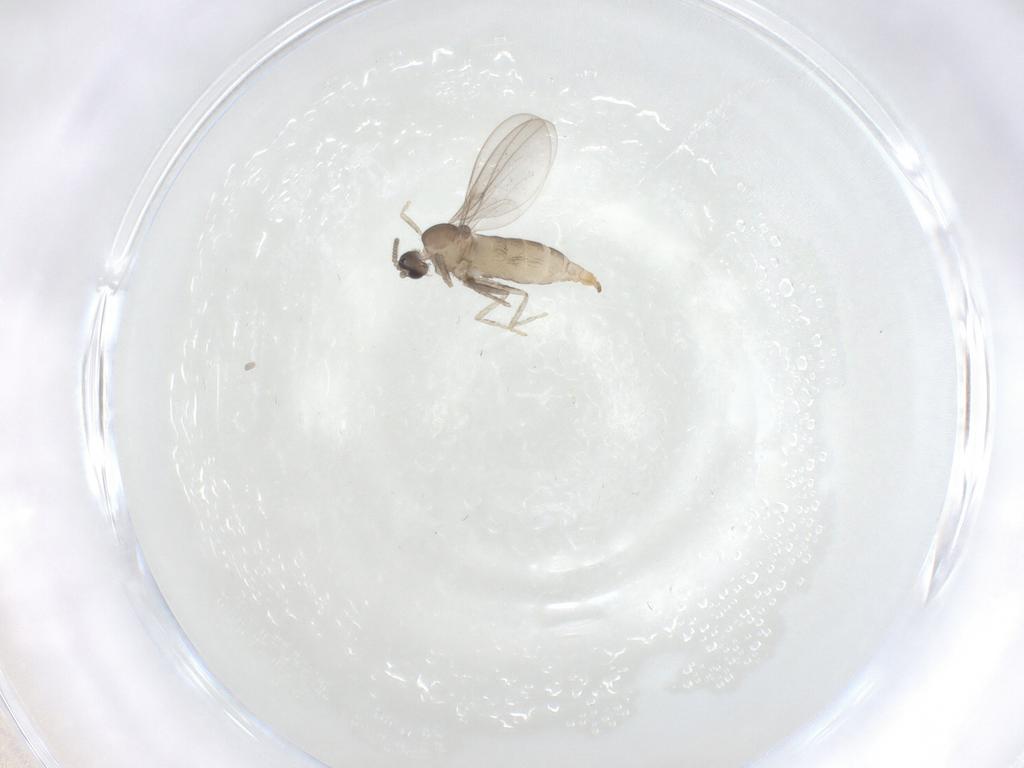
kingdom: Animalia
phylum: Arthropoda
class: Insecta
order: Diptera
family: Cecidomyiidae
